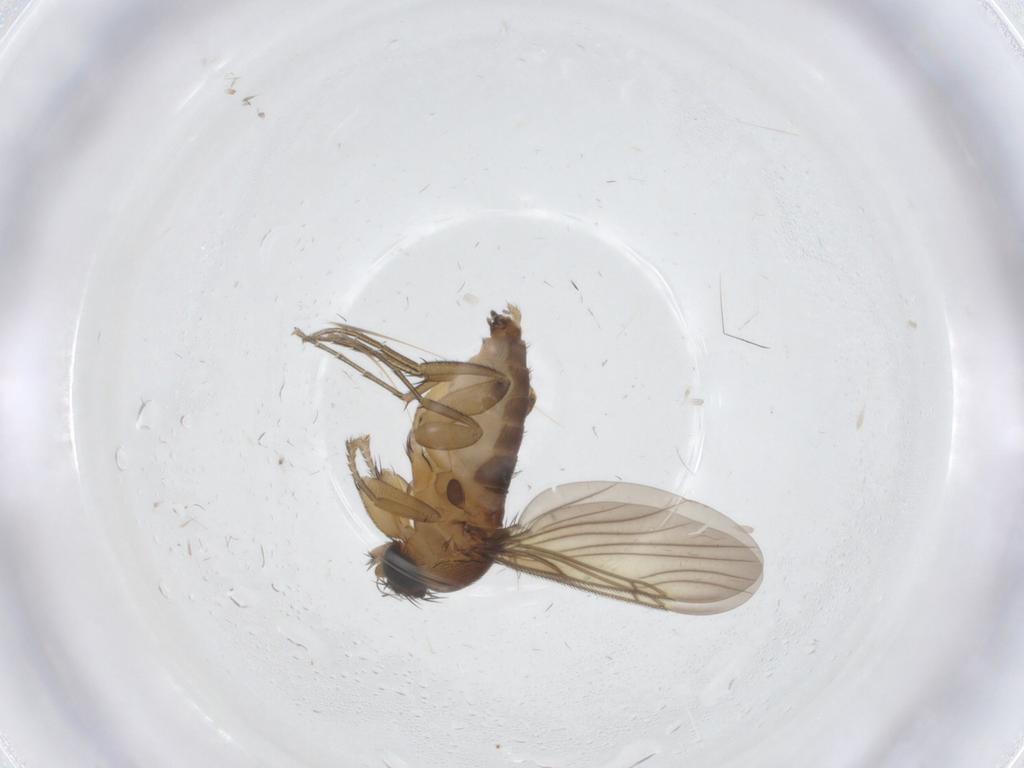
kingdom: Animalia
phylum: Arthropoda
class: Insecta
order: Diptera
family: Phoridae
